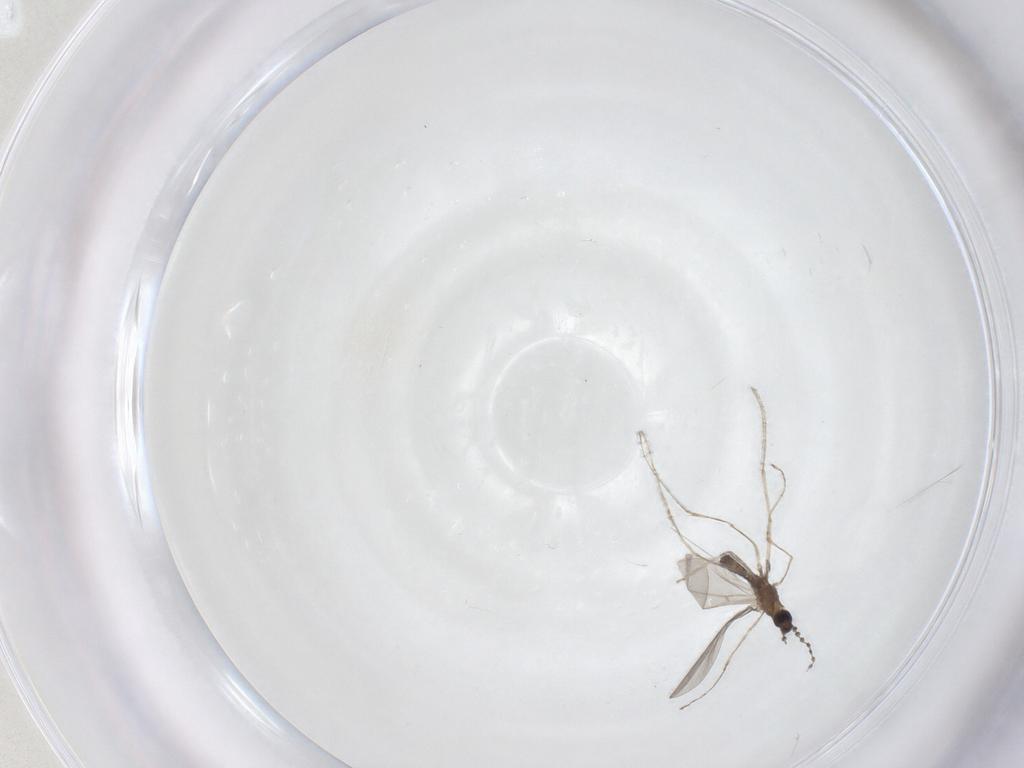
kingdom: Animalia
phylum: Arthropoda
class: Insecta
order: Diptera
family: Cecidomyiidae
